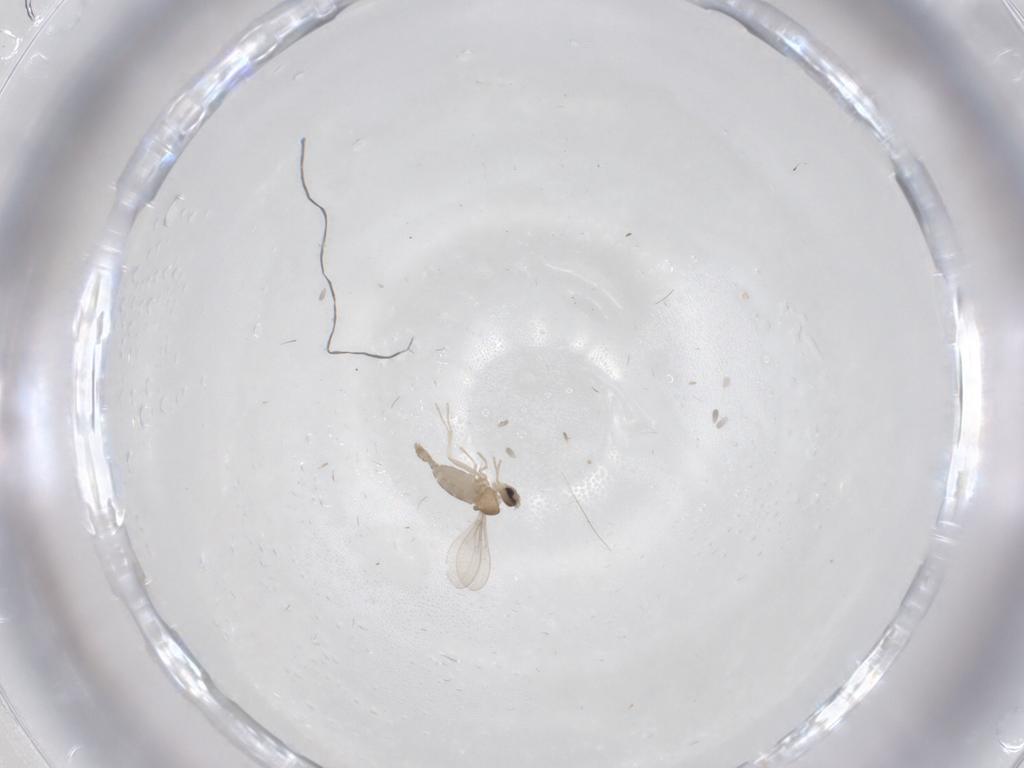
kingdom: Animalia
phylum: Arthropoda
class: Insecta
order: Diptera
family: Cecidomyiidae
